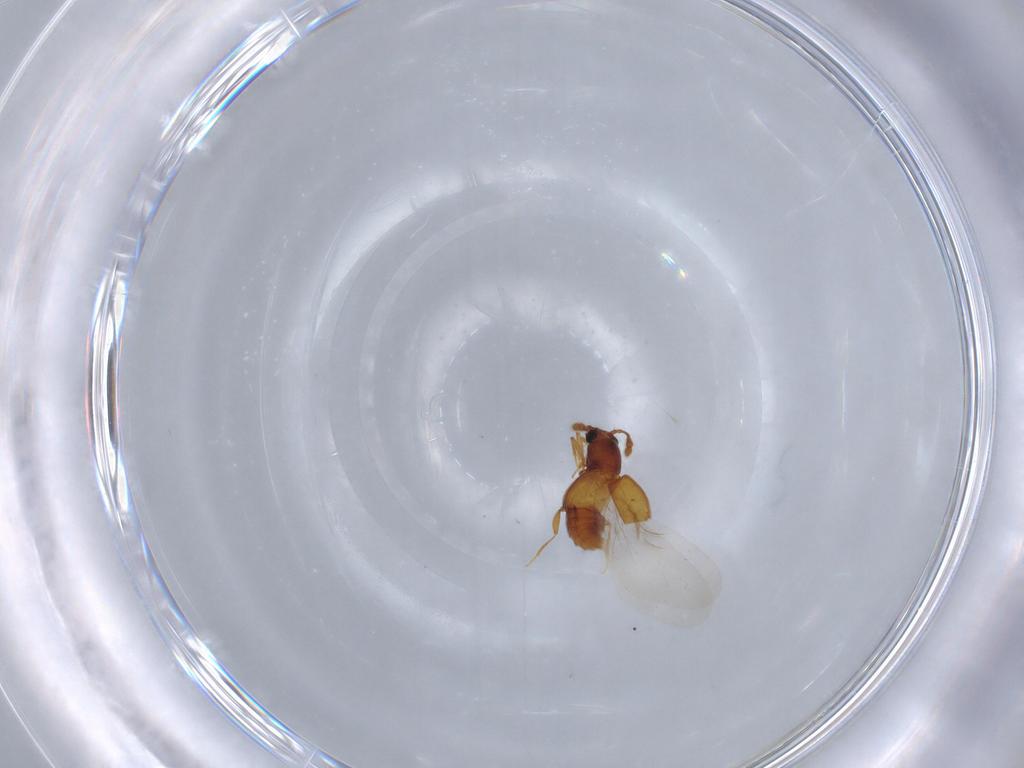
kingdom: Animalia
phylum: Arthropoda
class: Insecta
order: Coleoptera
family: Staphylinidae
